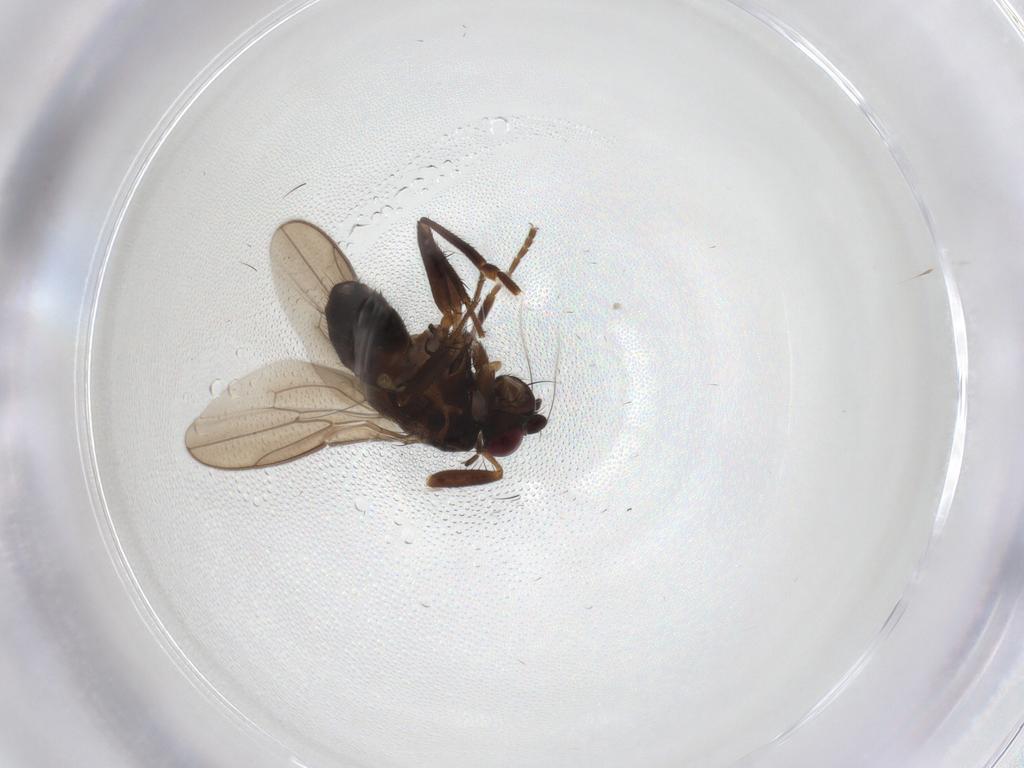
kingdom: Animalia
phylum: Arthropoda
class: Insecta
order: Diptera
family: Sphaeroceridae
